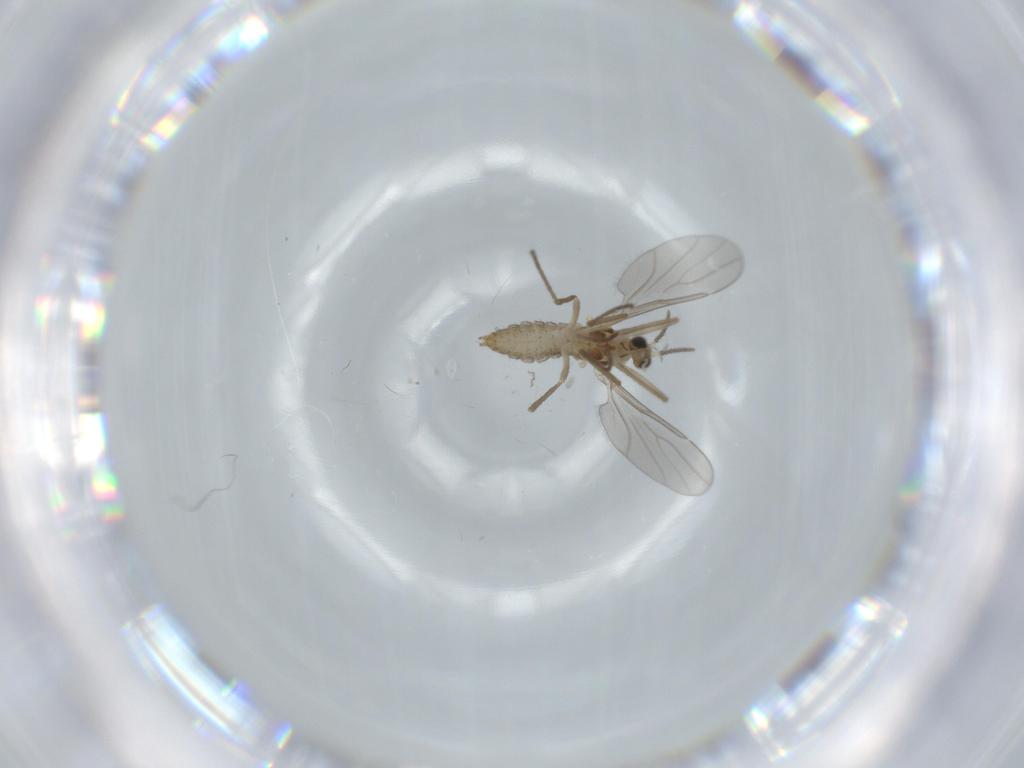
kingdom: Animalia
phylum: Arthropoda
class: Insecta
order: Diptera
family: Cecidomyiidae
